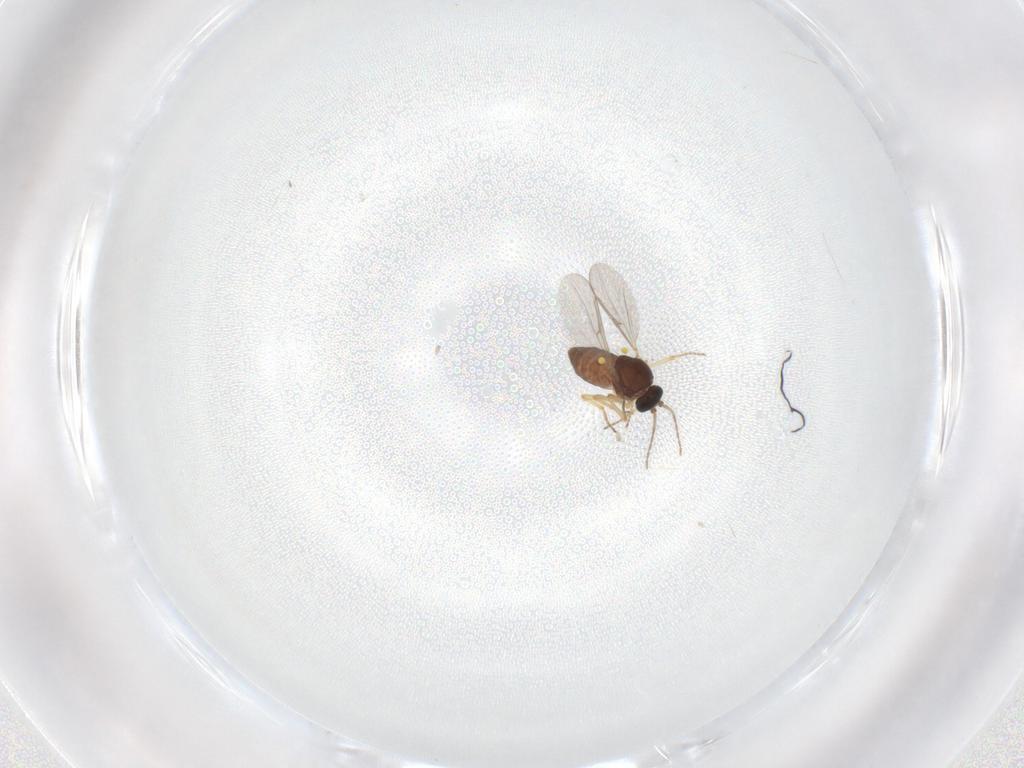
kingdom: Animalia
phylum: Arthropoda
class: Insecta
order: Diptera
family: Ceratopogonidae
